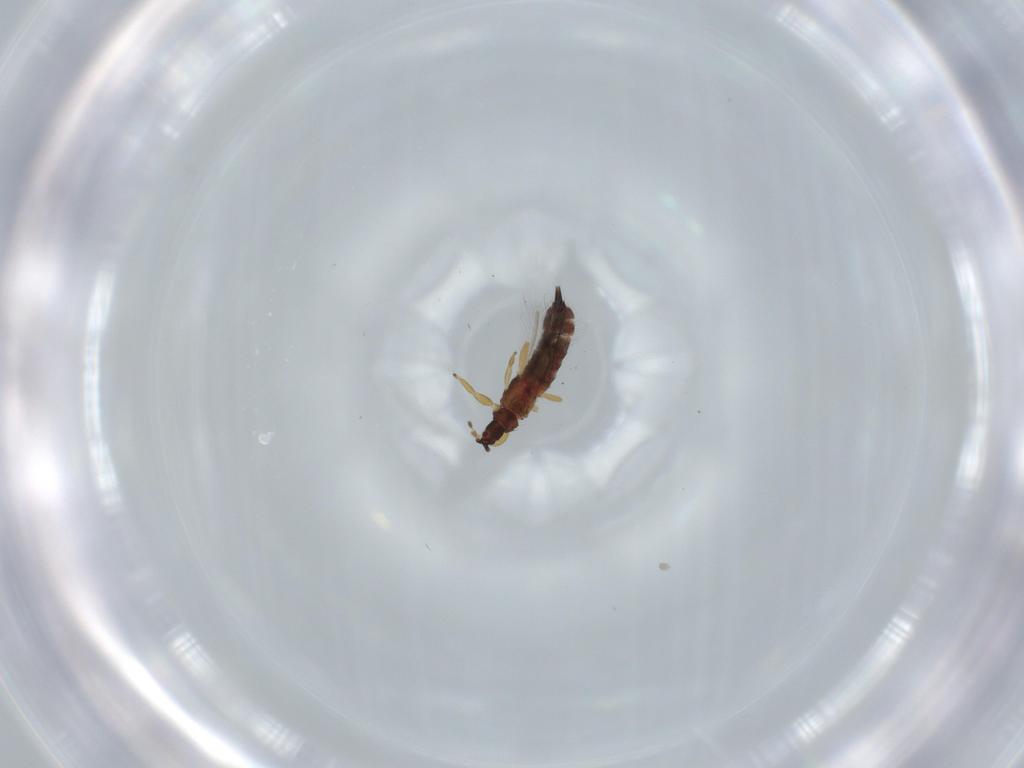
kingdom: Animalia
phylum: Arthropoda
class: Insecta
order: Thysanoptera
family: Phlaeothripidae
